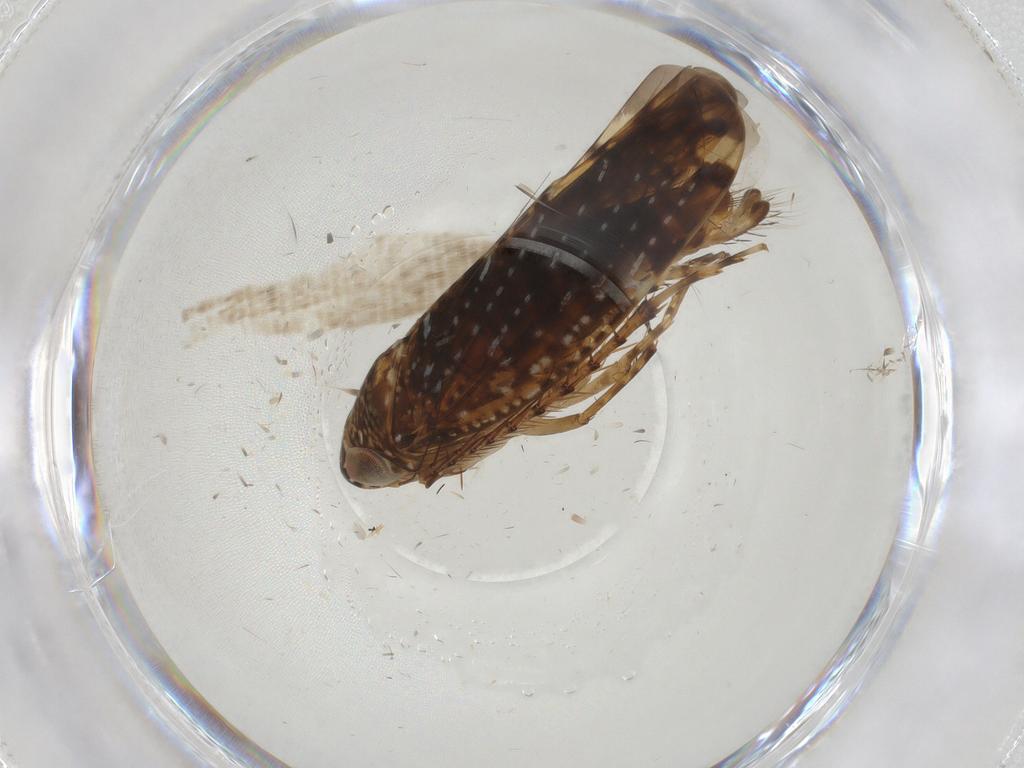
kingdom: Animalia
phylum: Arthropoda
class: Insecta
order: Hemiptera
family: Cicadellidae
